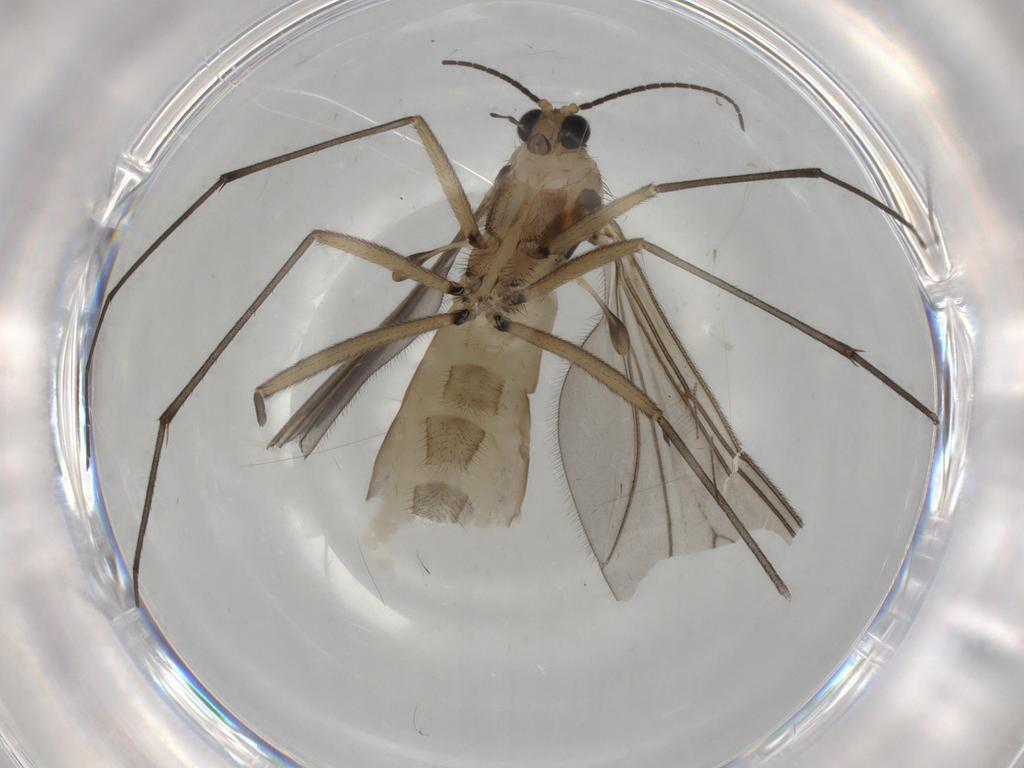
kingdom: Animalia
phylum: Arthropoda
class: Insecta
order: Diptera
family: Sciaridae
